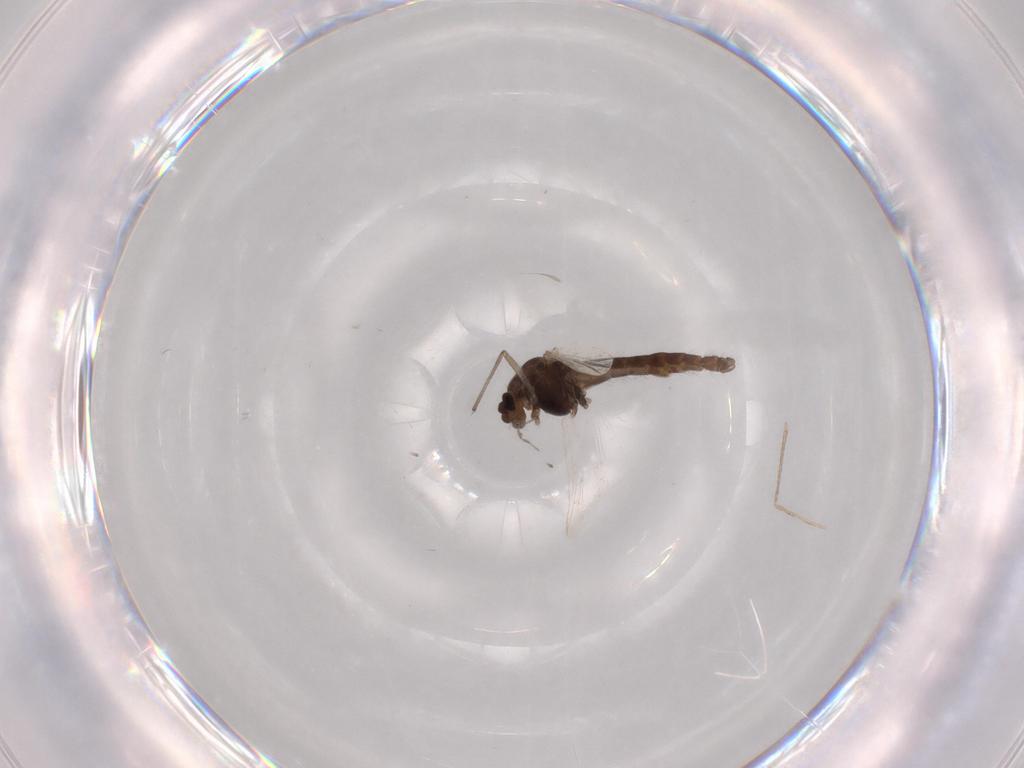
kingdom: Animalia
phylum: Arthropoda
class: Insecta
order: Diptera
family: Chironomidae
